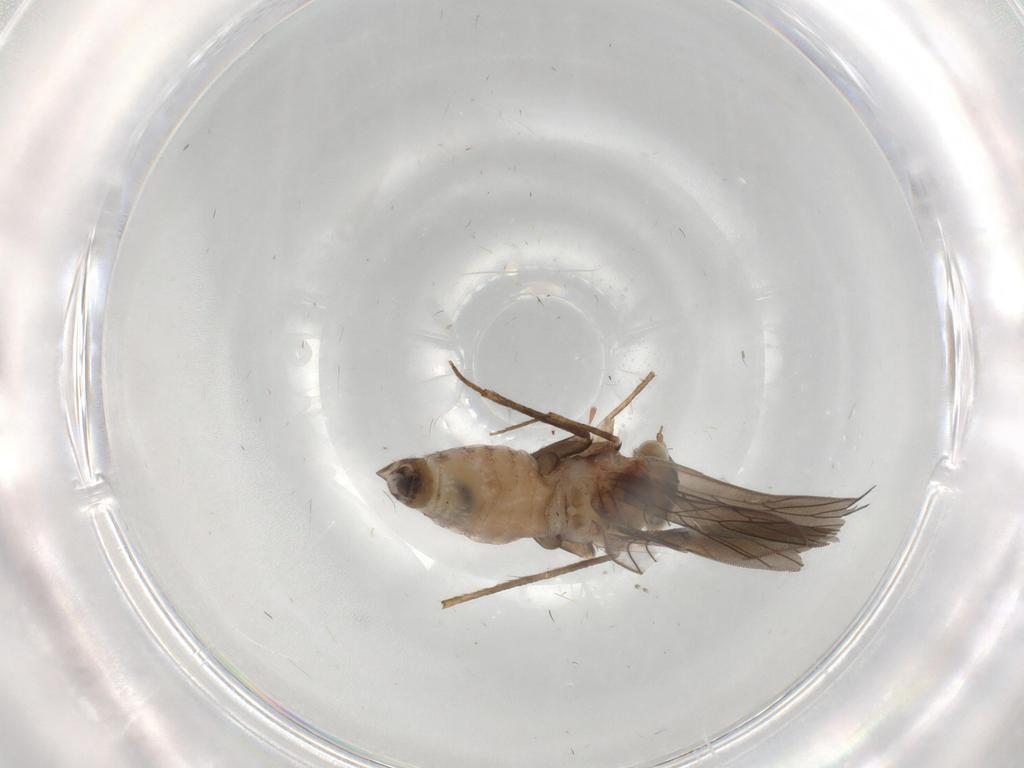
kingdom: Animalia
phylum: Arthropoda
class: Insecta
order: Psocodea
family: Lepidopsocidae
